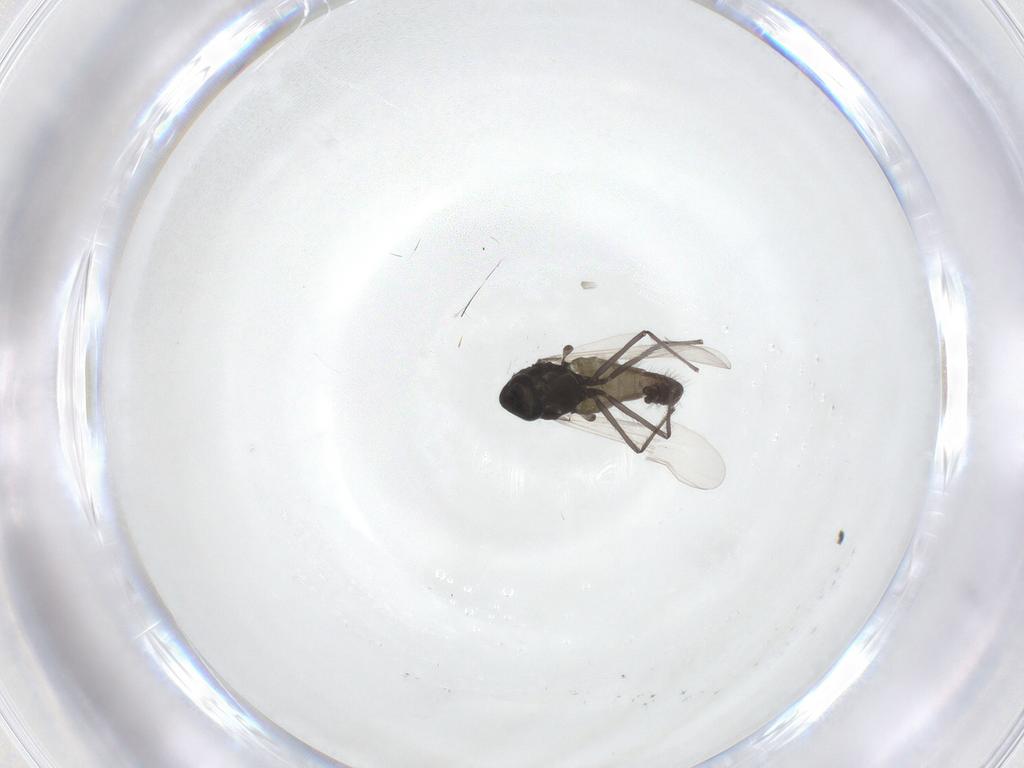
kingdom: Animalia
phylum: Arthropoda
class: Insecta
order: Diptera
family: Chironomidae
